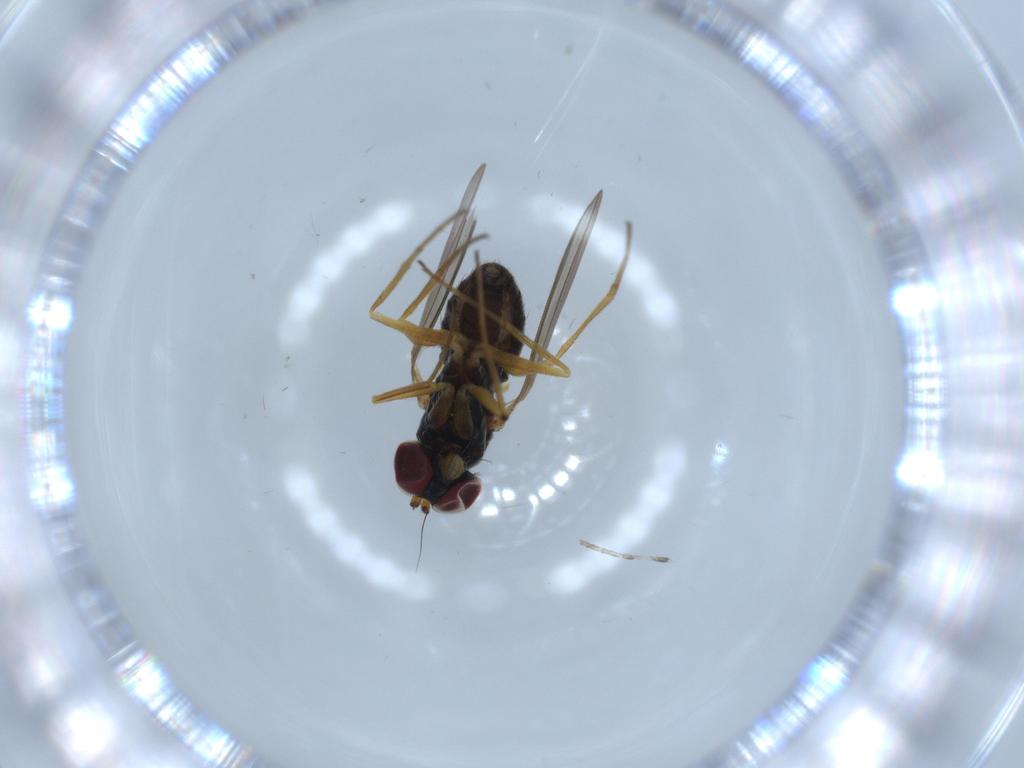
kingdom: Animalia
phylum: Arthropoda
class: Insecta
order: Diptera
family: Dolichopodidae
